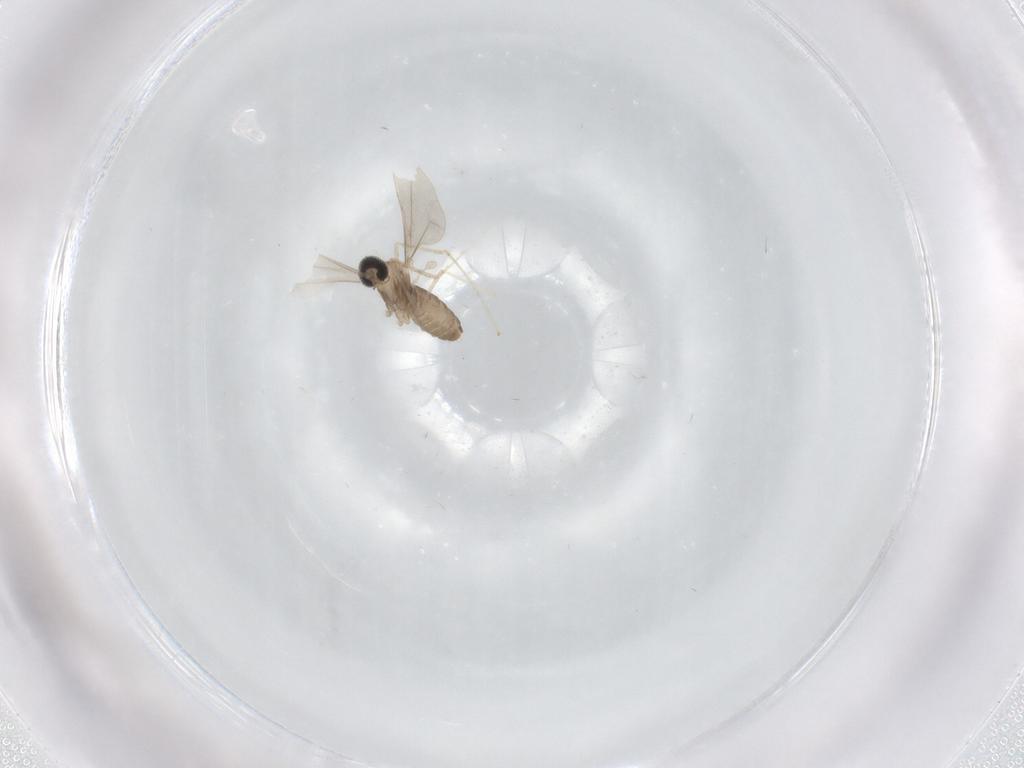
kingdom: Animalia
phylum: Arthropoda
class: Insecta
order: Diptera
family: Cecidomyiidae
